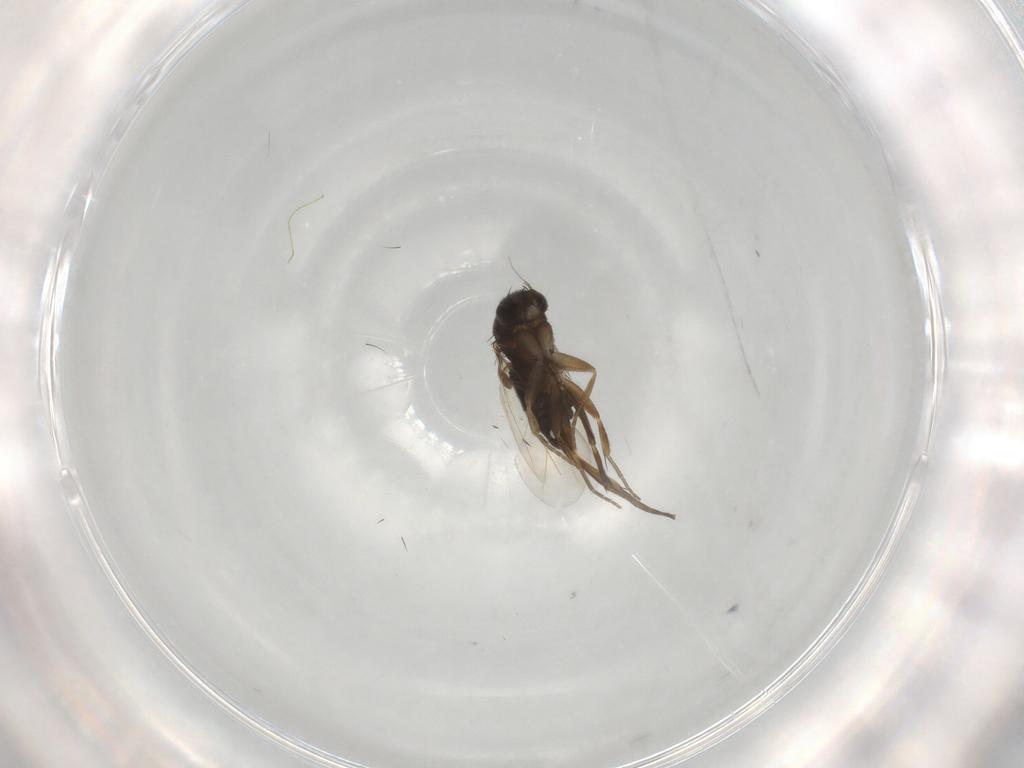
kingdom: Animalia
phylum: Arthropoda
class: Insecta
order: Diptera
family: Phoridae
